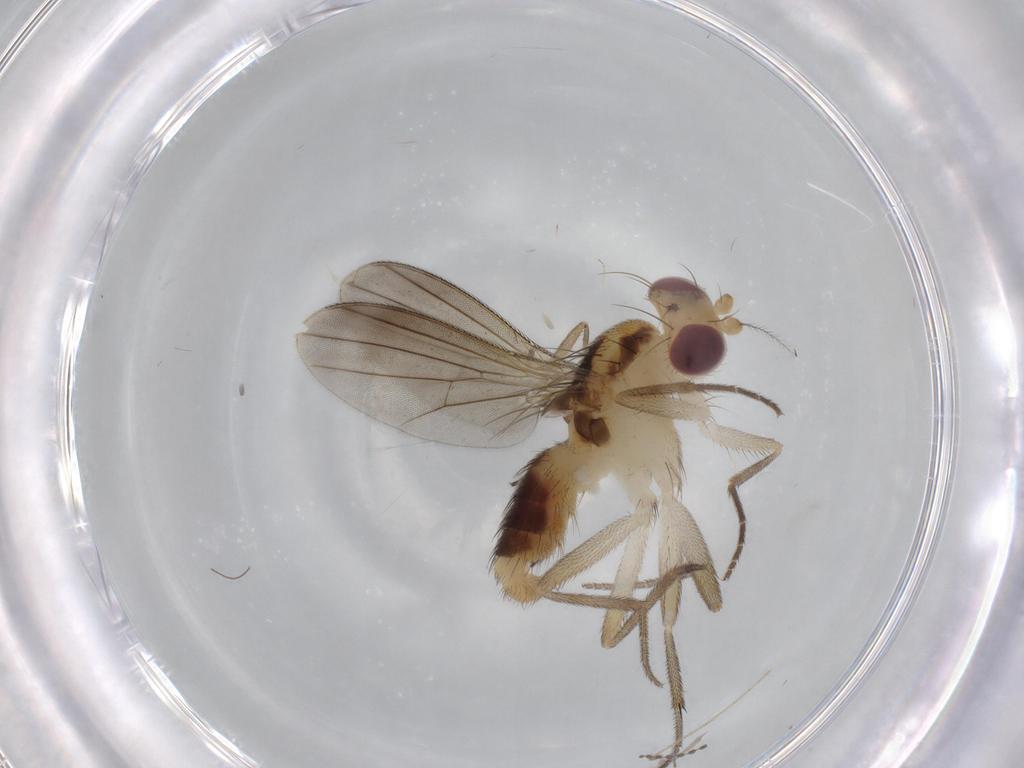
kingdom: Animalia
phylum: Arthropoda
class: Insecta
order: Diptera
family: Clusiidae
